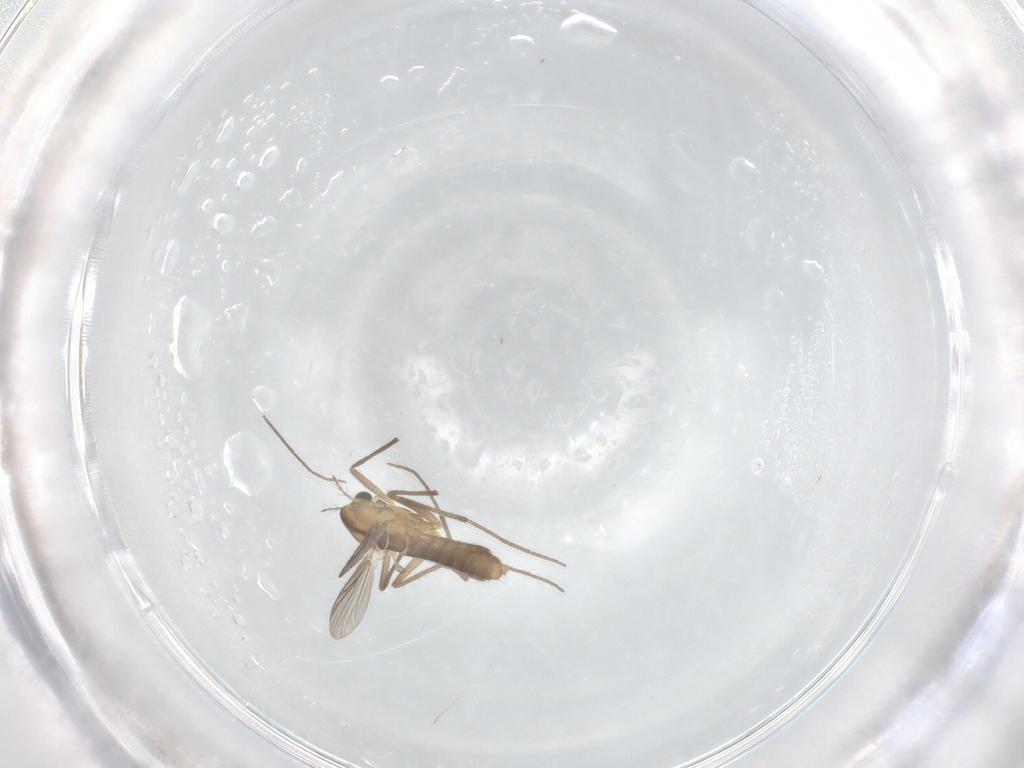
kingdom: Animalia
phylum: Arthropoda
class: Insecta
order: Diptera
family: Chironomidae
